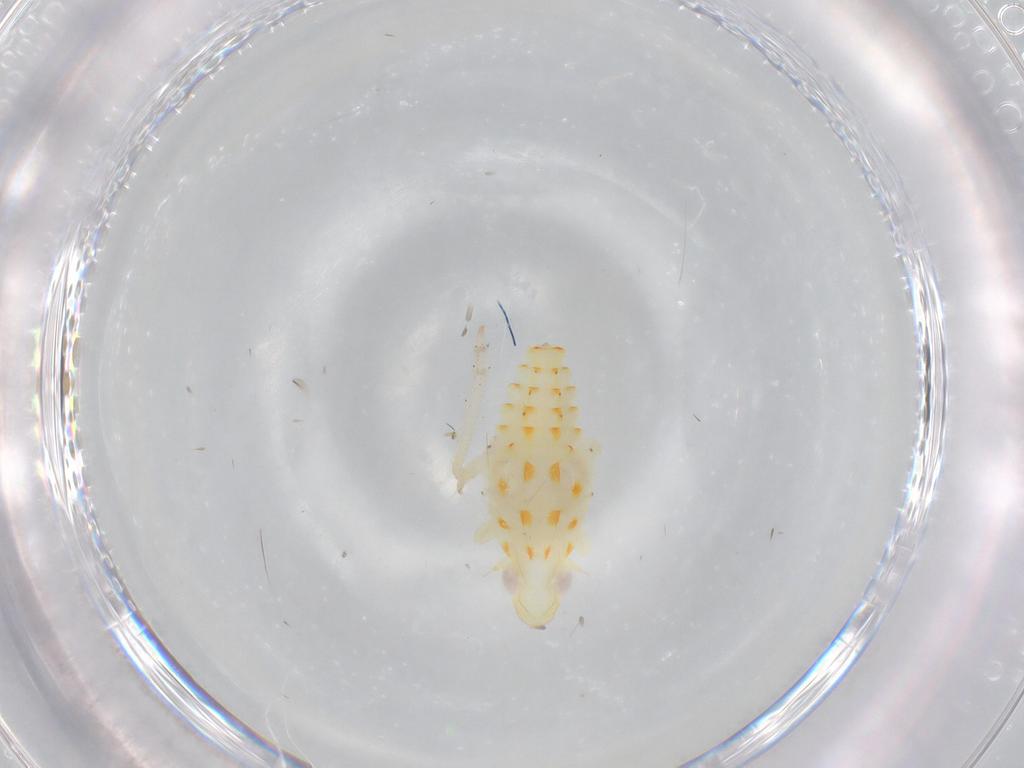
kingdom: Animalia
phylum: Arthropoda
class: Insecta
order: Hemiptera
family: Tropiduchidae
